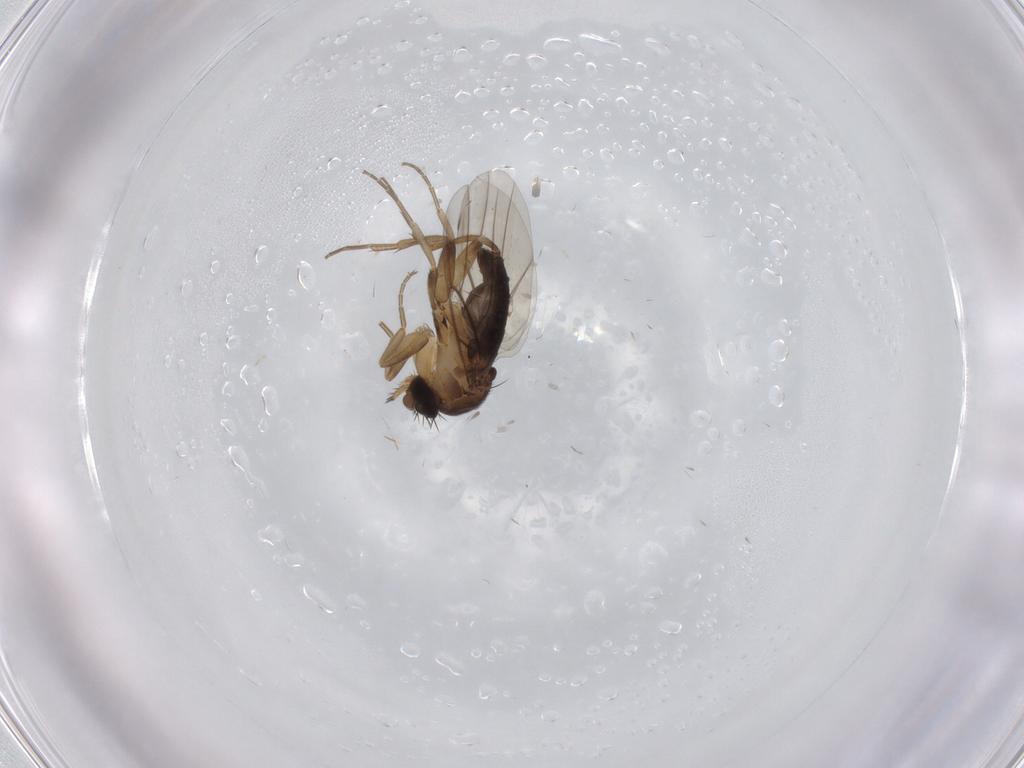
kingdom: Animalia
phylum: Arthropoda
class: Insecta
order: Diptera
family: Phoridae
